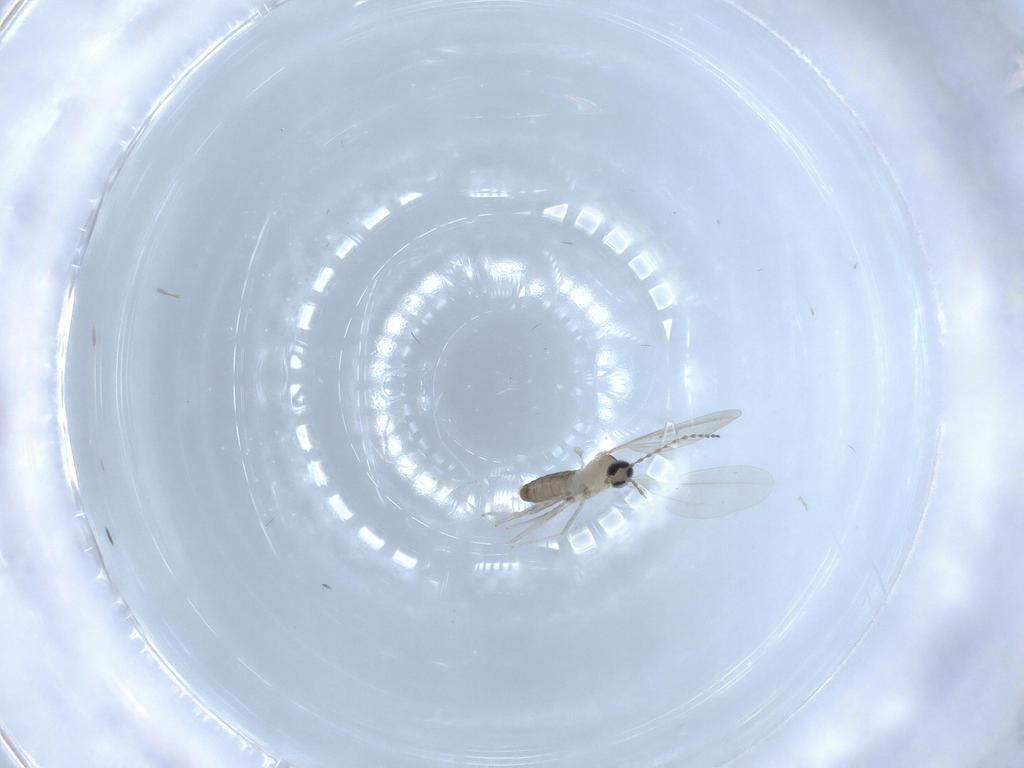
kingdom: Animalia
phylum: Arthropoda
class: Insecta
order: Diptera
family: Cecidomyiidae
